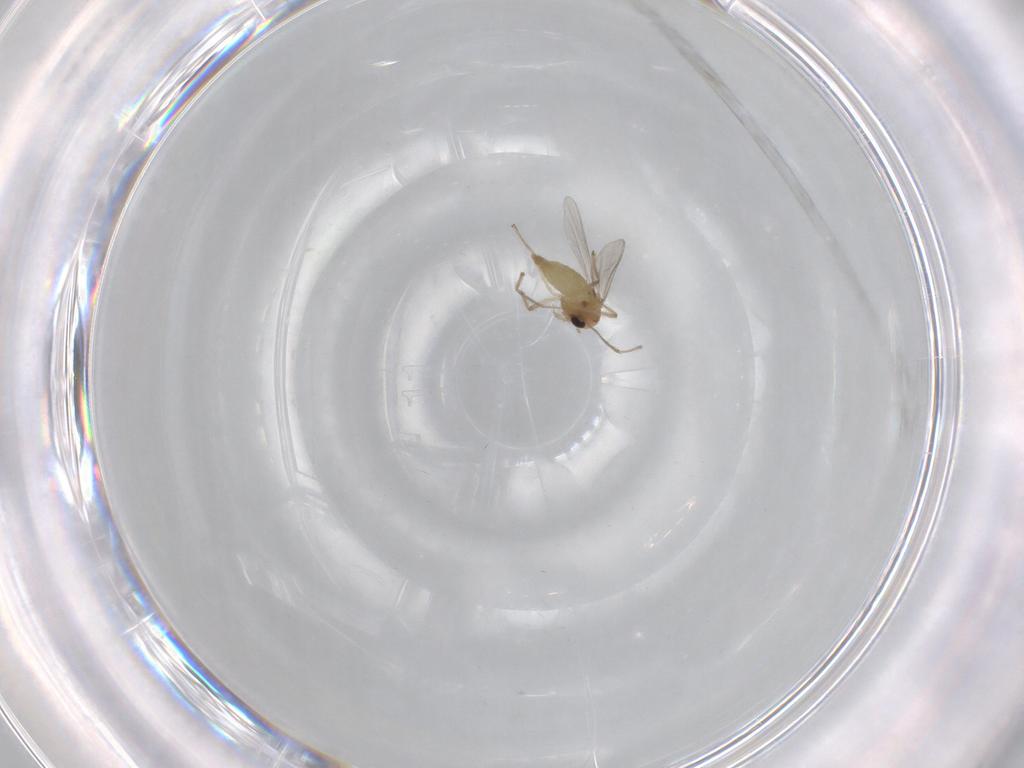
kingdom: Animalia
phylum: Arthropoda
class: Insecta
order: Diptera
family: Chironomidae
